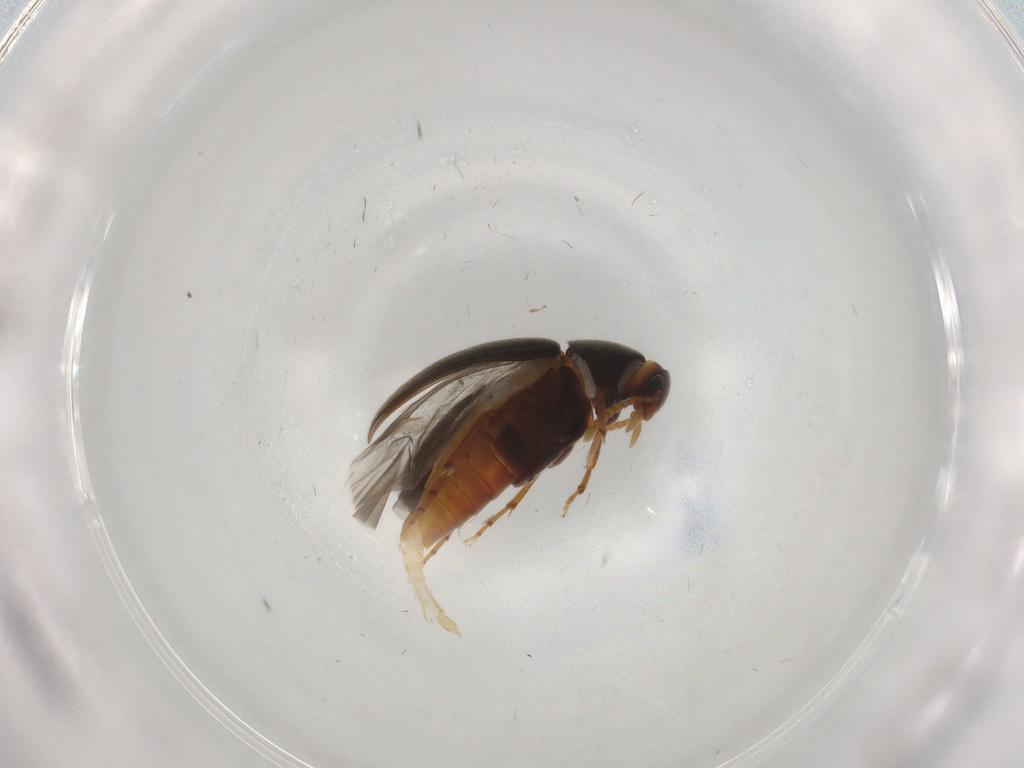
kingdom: Animalia
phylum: Arthropoda
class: Insecta
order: Coleoptera
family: Scraptiidae
